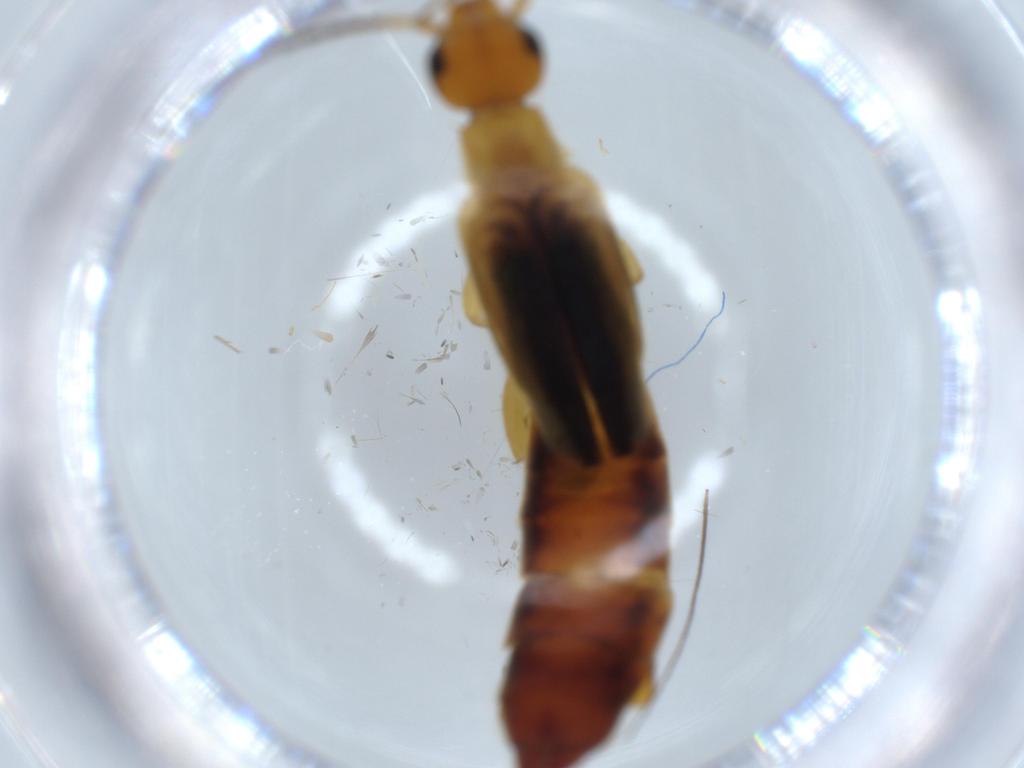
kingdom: Animalia
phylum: Arthropoda
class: Insecta
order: Dermaptera
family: Forficulidae
